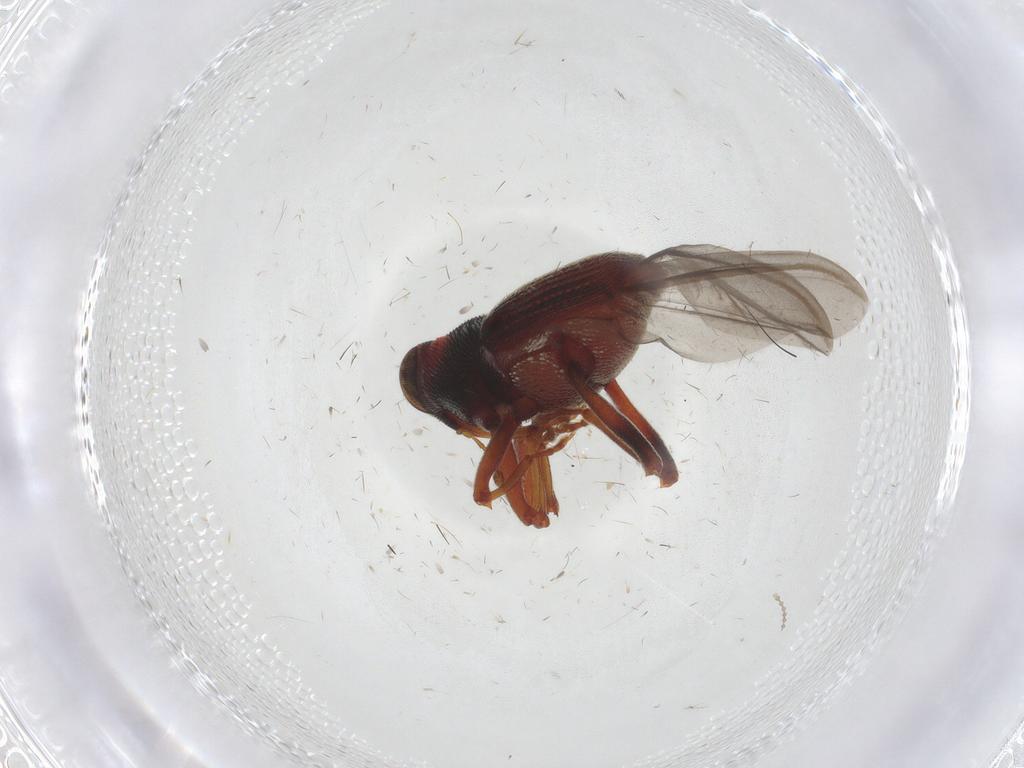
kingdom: Animalia
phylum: Arthropoda
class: Insecta
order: Coleoptera
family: Curculionidae
